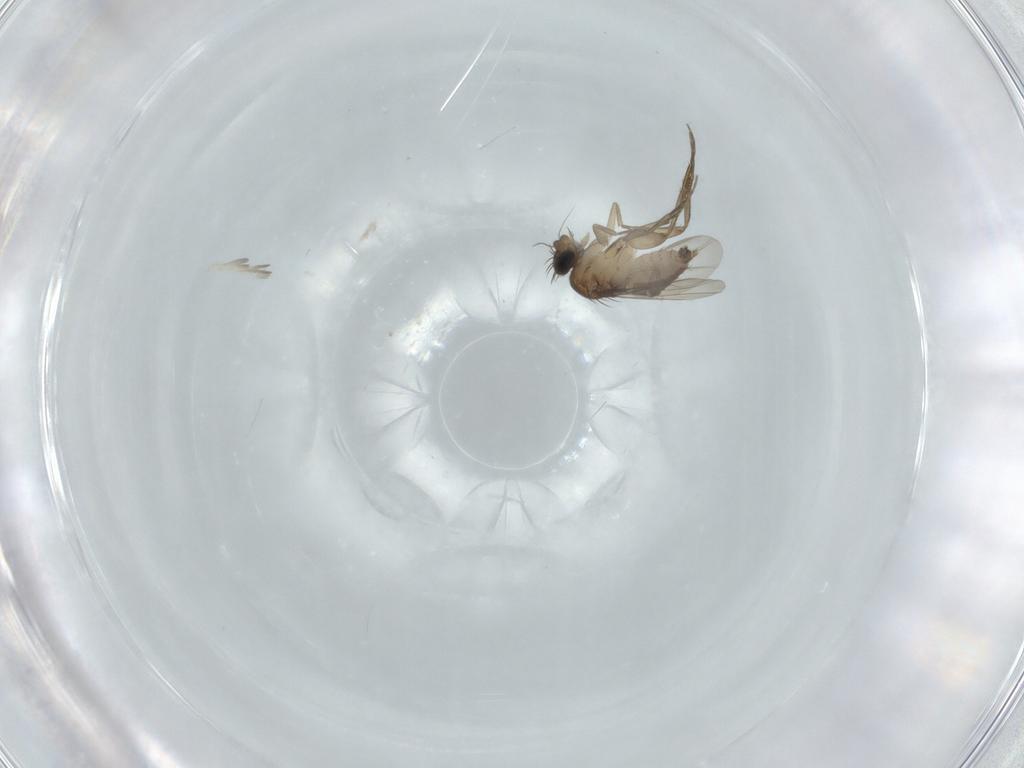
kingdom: Animalia
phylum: Arthropoda
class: Insecta
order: Diptera
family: Phoridae
